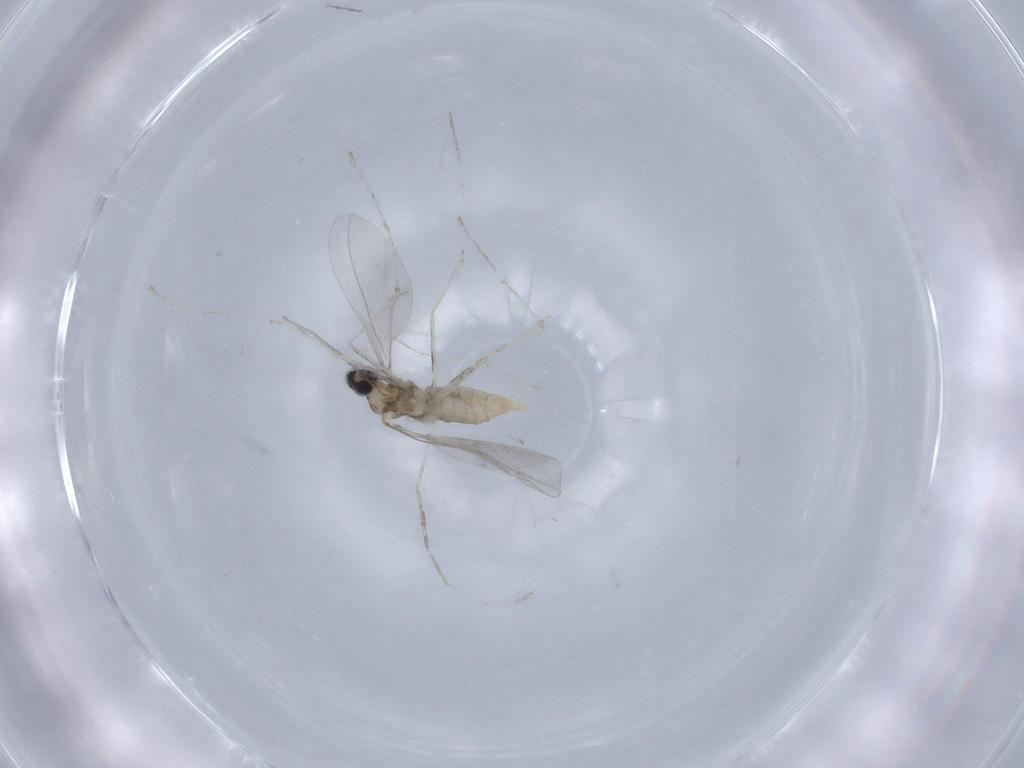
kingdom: Animalia
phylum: Arthropoda
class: Insecta
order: Diptera
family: Cecidomyiidae
